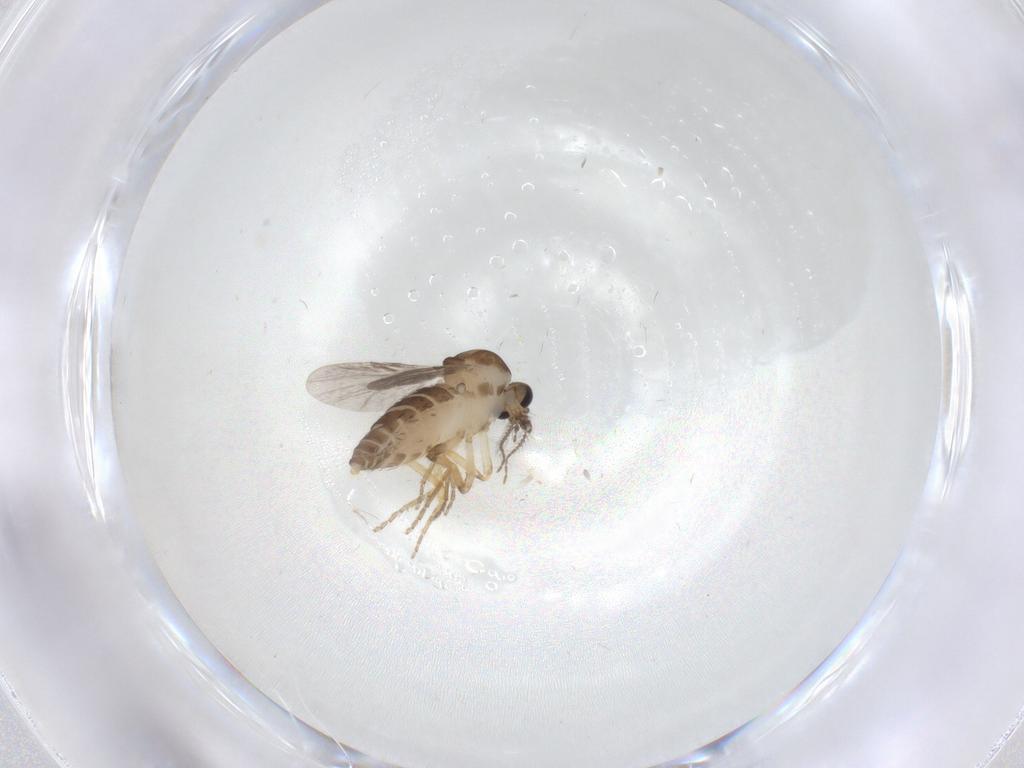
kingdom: Animalia
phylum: Arthropoda
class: Insecta
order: Diptera
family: Ceratopogonidae
